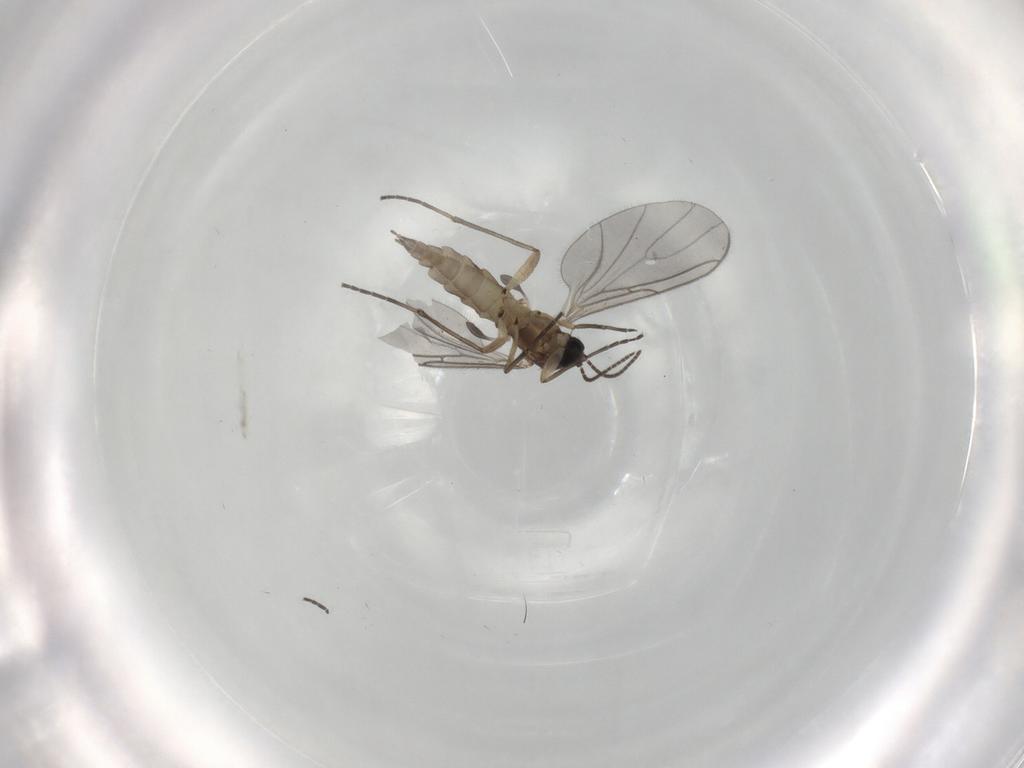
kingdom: Animalia
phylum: Arthropoda
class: Insecta
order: Diptera
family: Sciaridae
